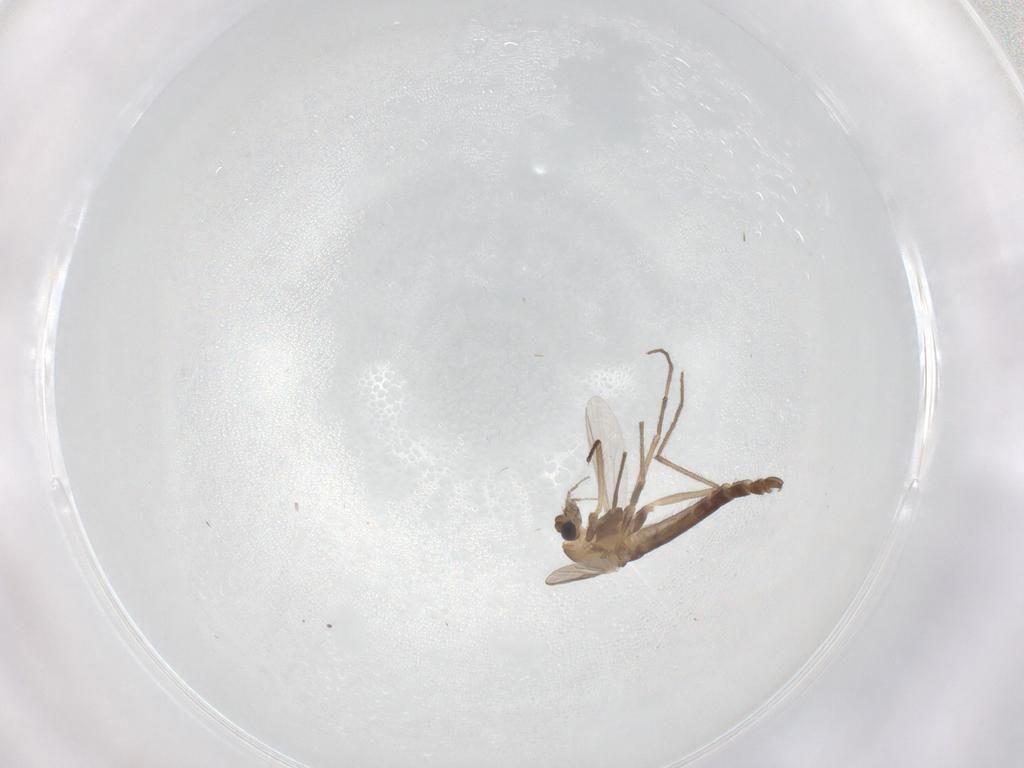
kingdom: Animalia
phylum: Arthropoda
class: Insecta
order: Diptera
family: Chironomidae
